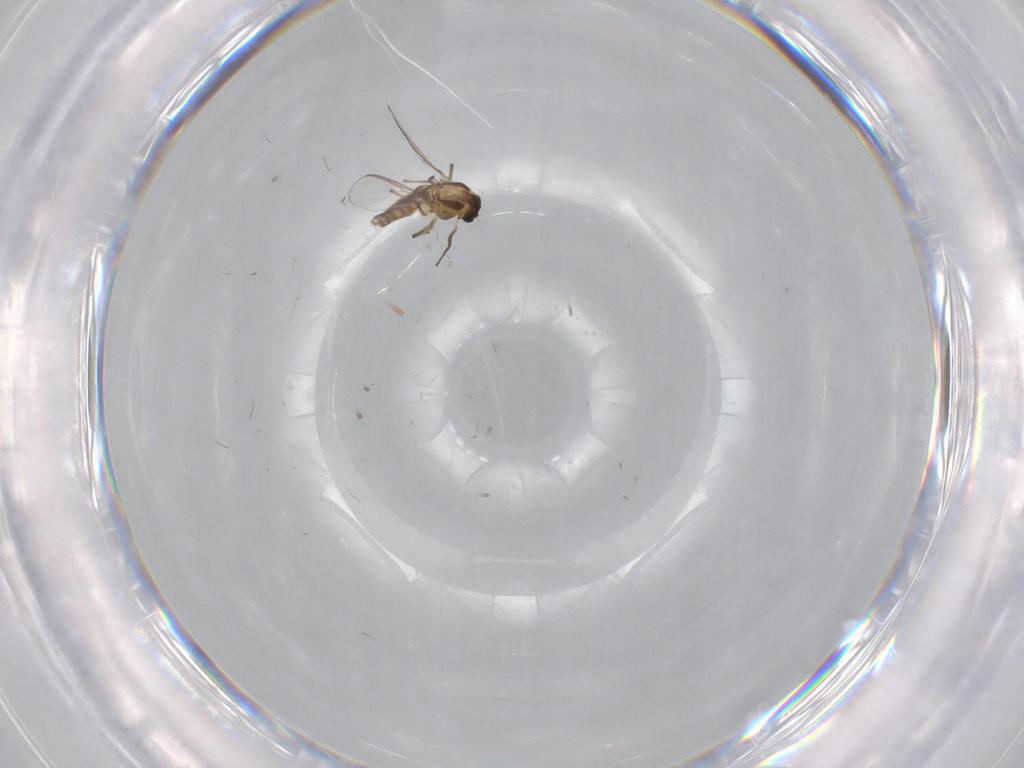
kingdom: Animalia
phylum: Arthropoda
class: Insecta
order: Diptera
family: Chironomidae
